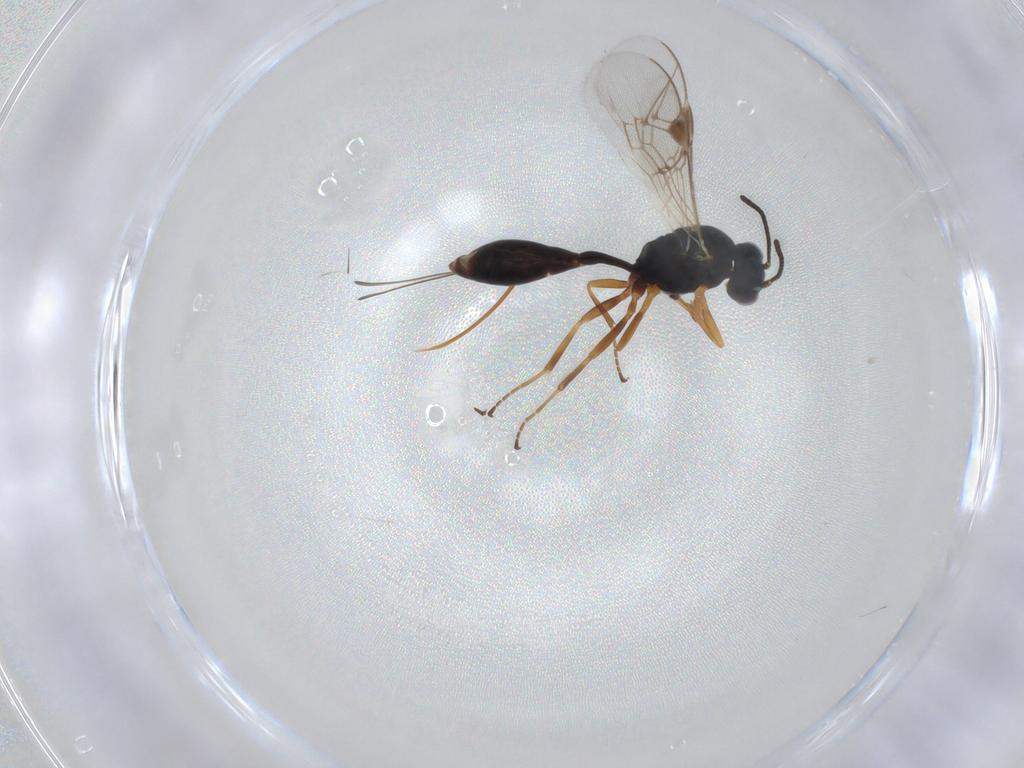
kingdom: Animalia
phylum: Arthropoda
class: Insecta
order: Hymenoptera
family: Ichneumonidae
